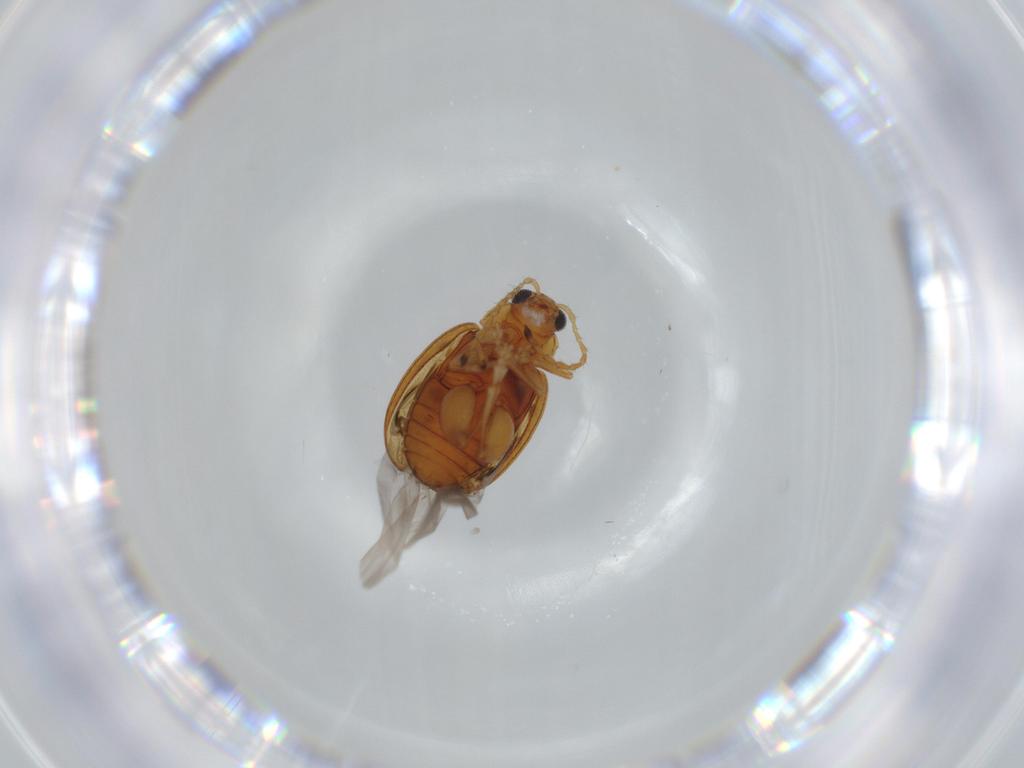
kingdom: Animalia
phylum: Arthropoda
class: Insecta
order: Coleoptera
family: Chrysomelidae
